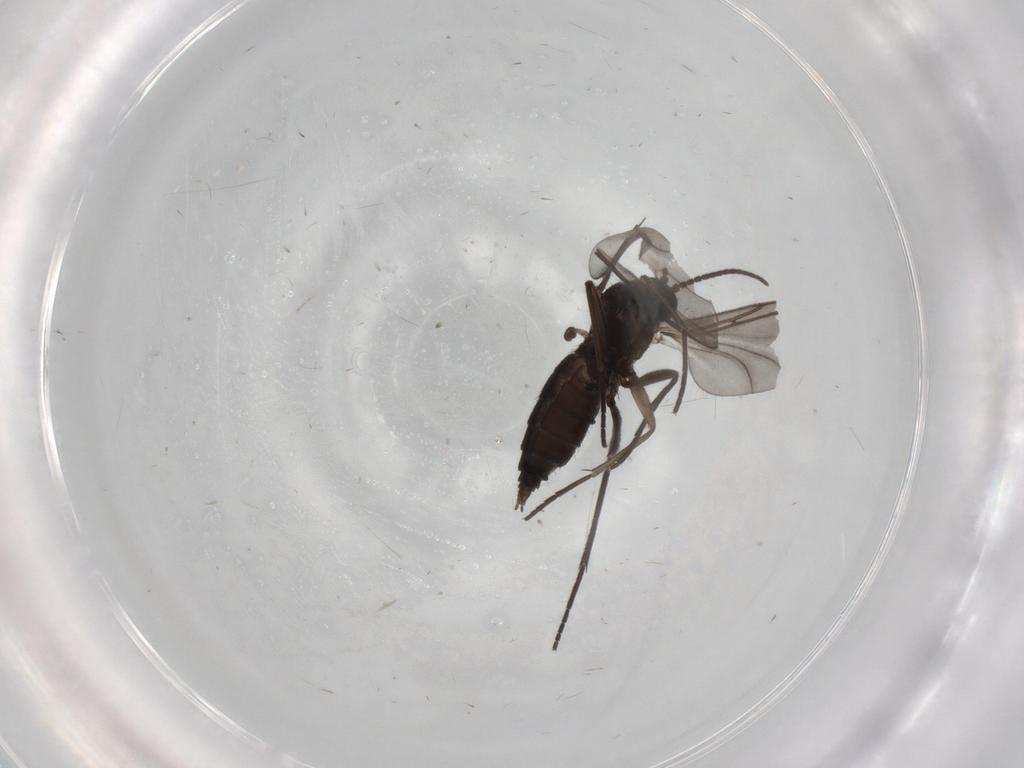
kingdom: Animalia
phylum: Arthropoda
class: Insecta
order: Diptera
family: Sciaridae
